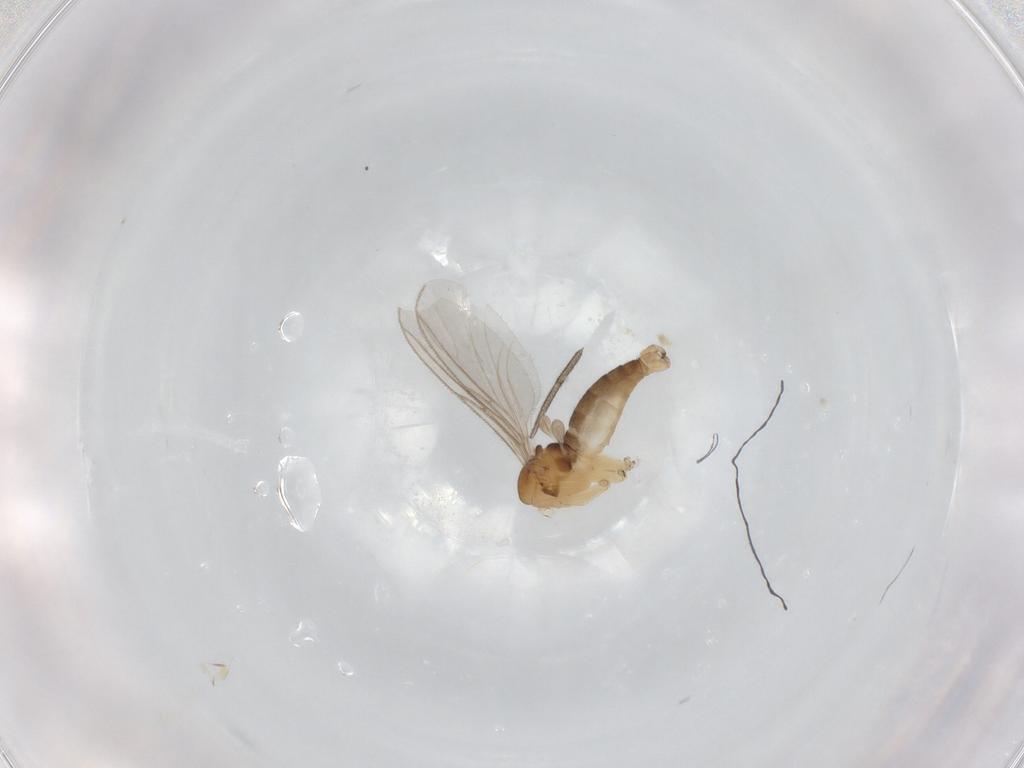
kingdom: Animalia
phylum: Arthropoda
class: Insecta
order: Diptera
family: Sciaridae
